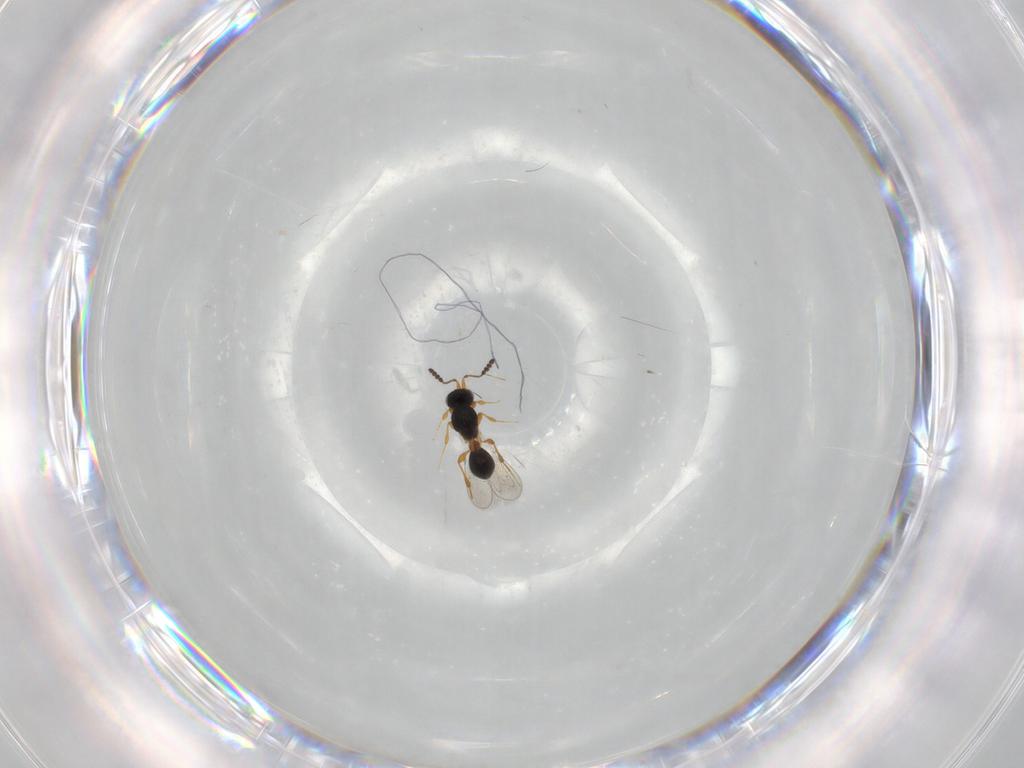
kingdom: Animalia
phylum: Arthropoda
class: Insecta
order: Hymenoptera
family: Platygastridae
